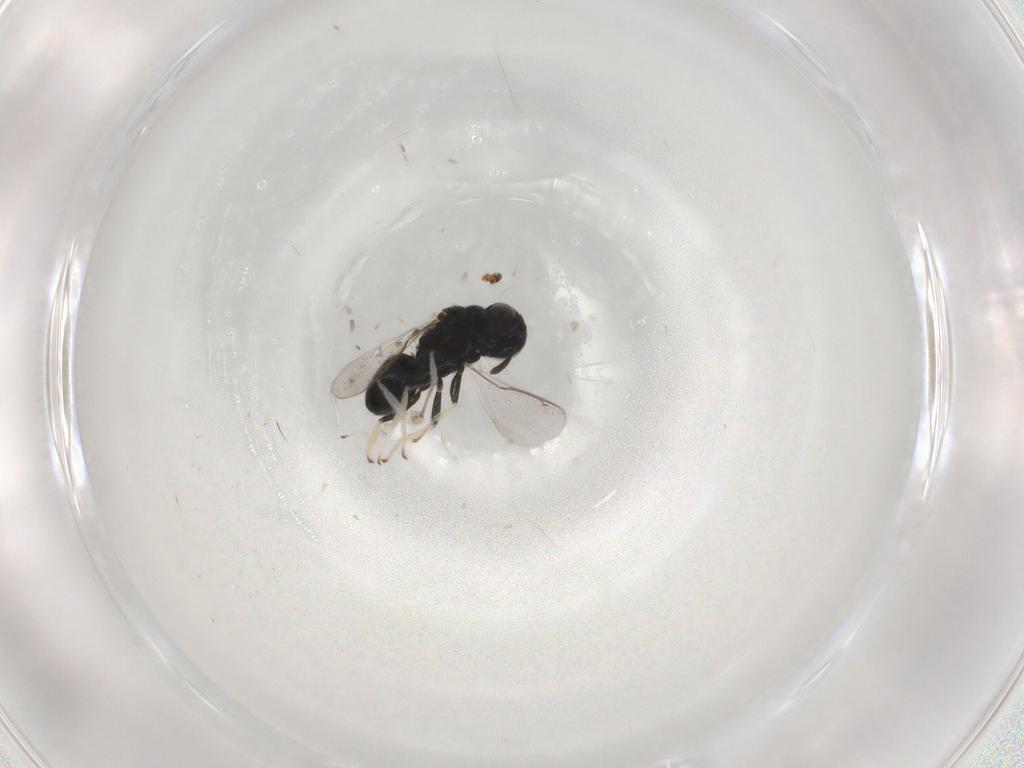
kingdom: Animalia
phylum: Arthropoda
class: Insecta
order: Hymenoptera
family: Herbertiidae
